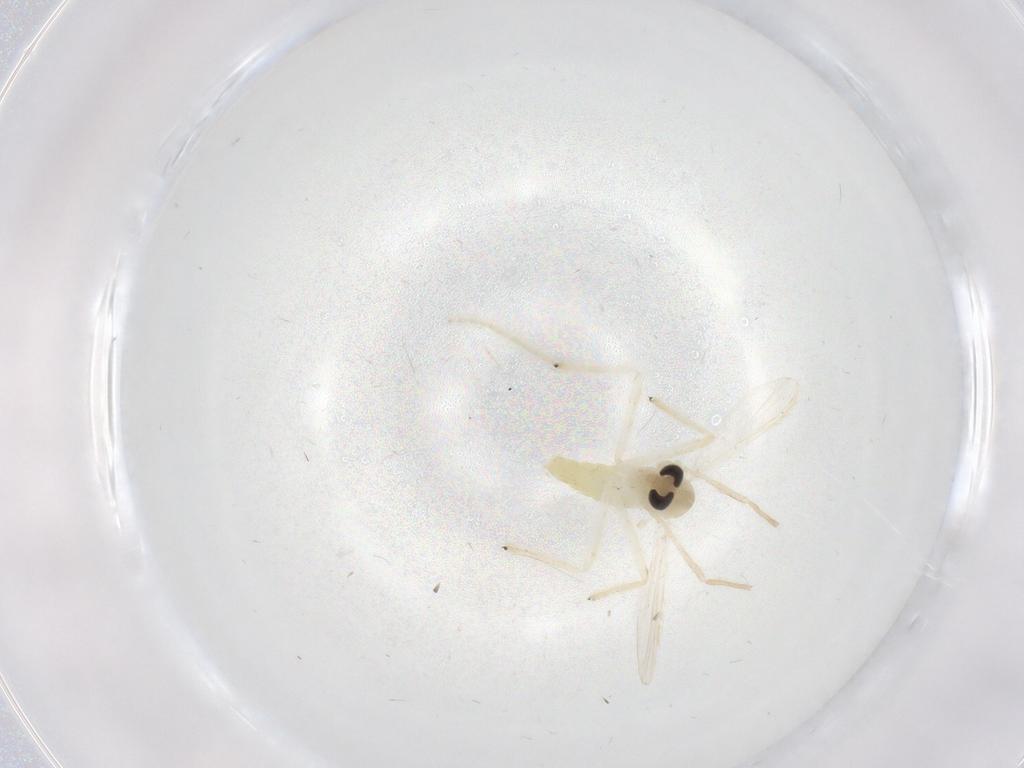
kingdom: Animalia
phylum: Arthropoda
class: Insecta
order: Diptera
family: Chironomidae
